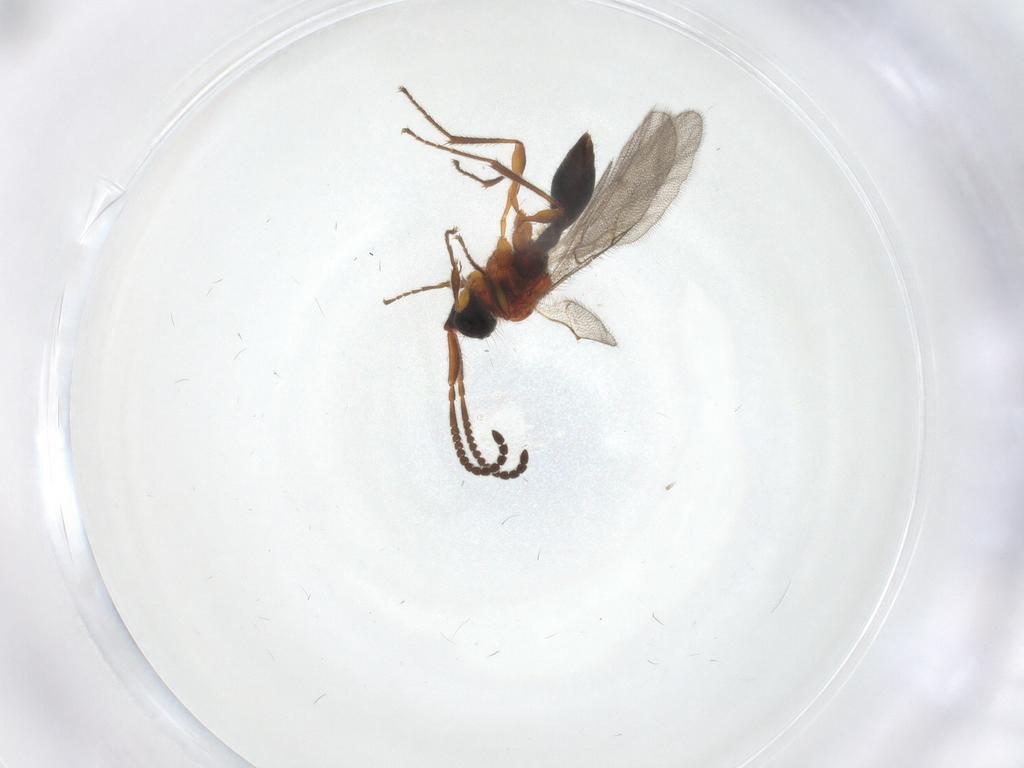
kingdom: Animalia
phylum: Arthropoda
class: Insecta
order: Hymenoptera
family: Diapriidae
